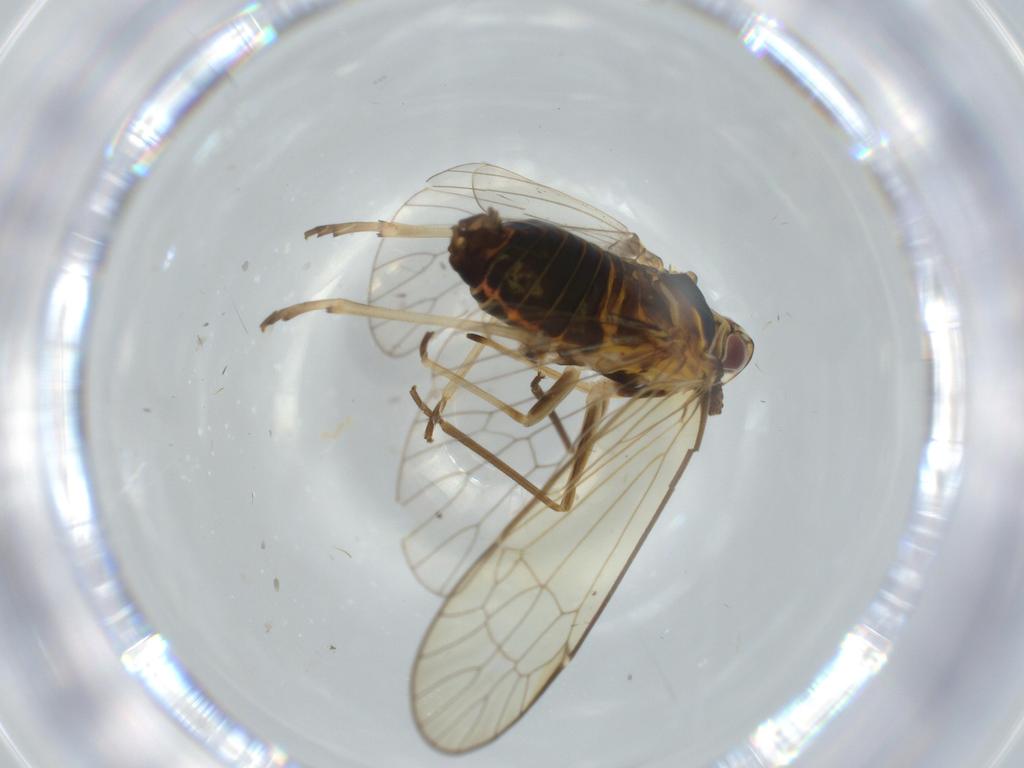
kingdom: Animalia
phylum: Arthropoda
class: Insecta
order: Hemiptera
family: Kinnaridae
